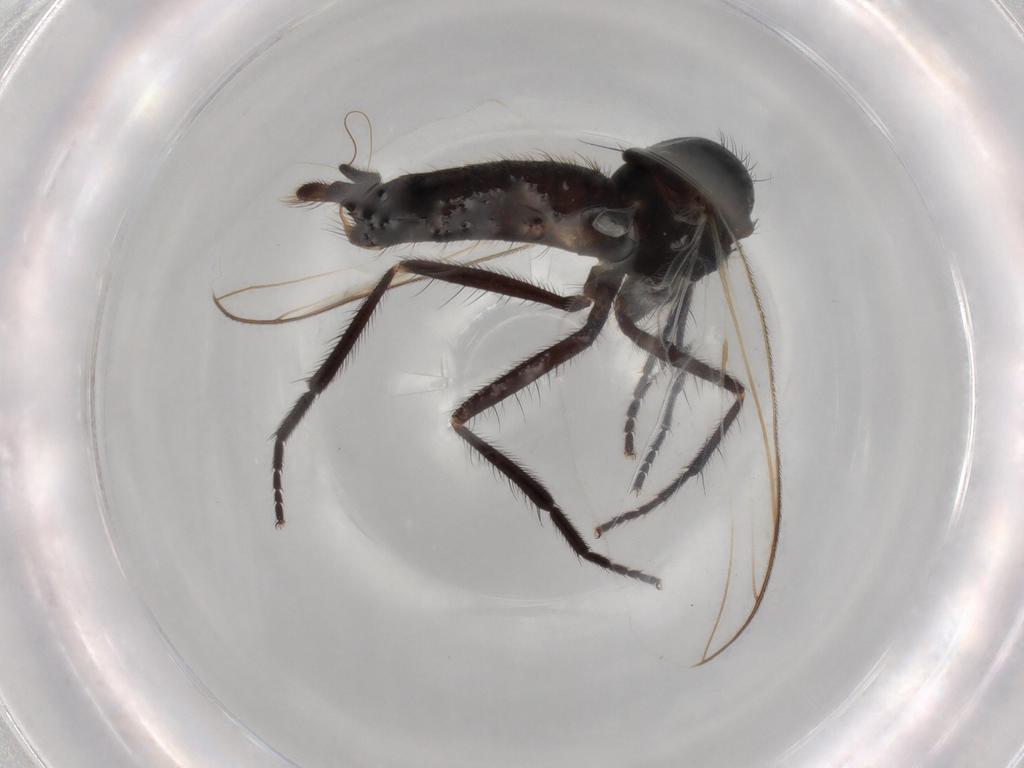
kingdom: Animalia
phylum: Arthropoda
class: Insecta
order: Diptera
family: Empididae
